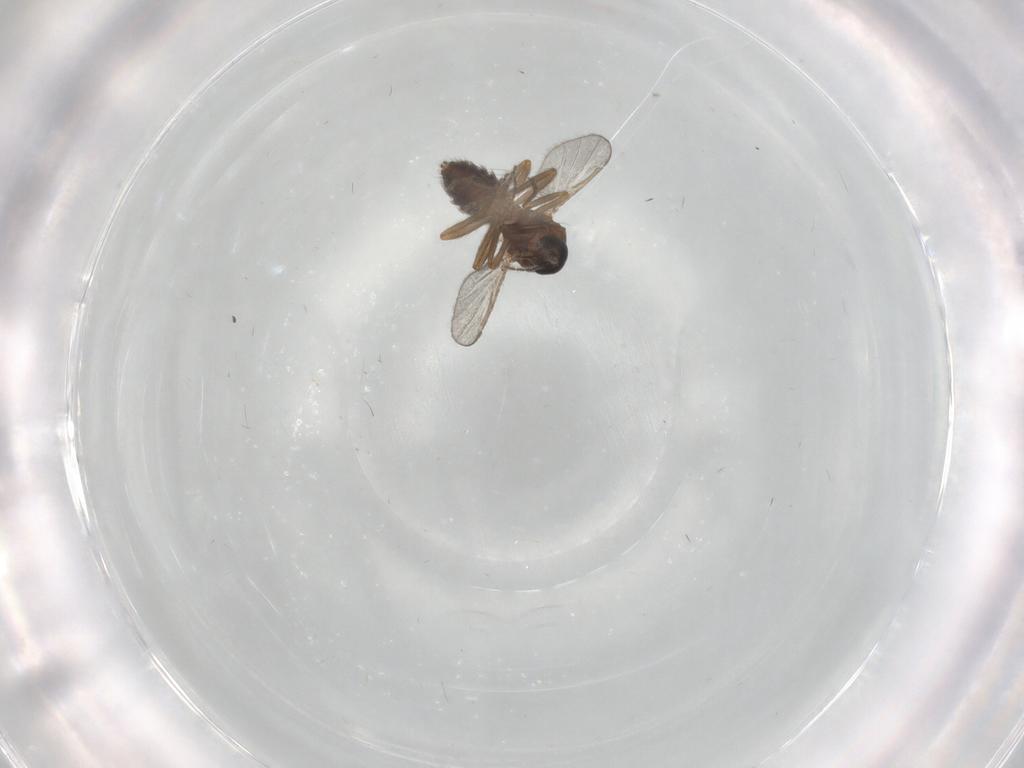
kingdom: Animalia
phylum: Arthropoda
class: Insecta
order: Diptera
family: Ceratopogonidae
